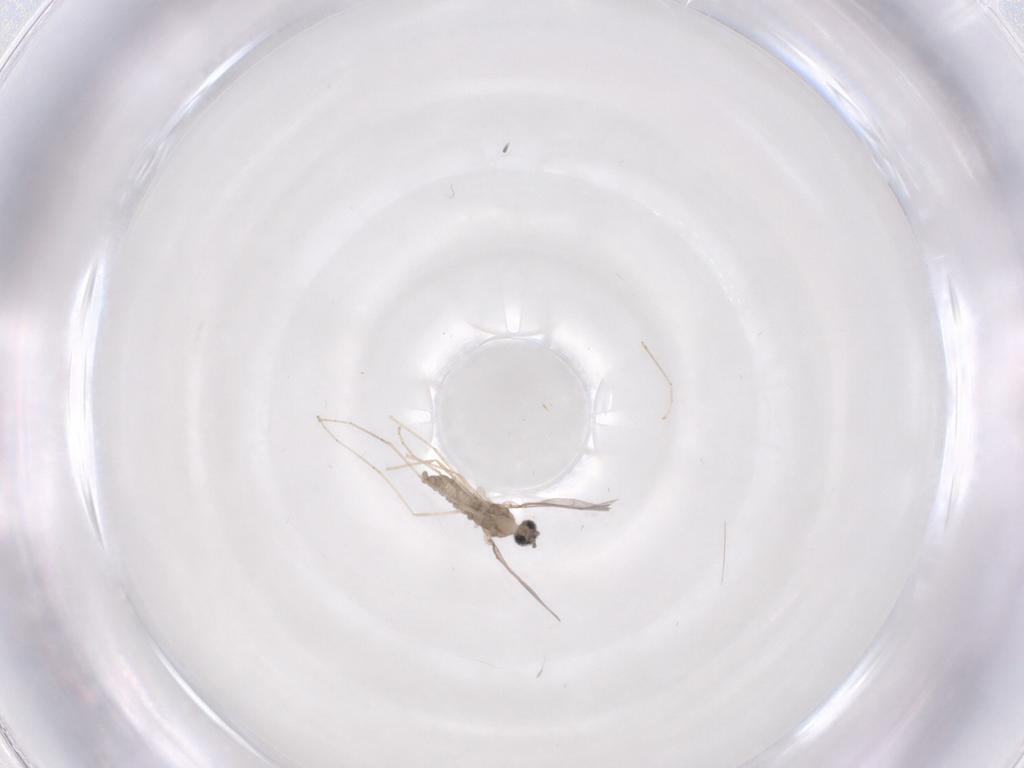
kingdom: Animalia
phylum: Arthropoda
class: Insecta
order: Diptera
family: Cecidomyiidae
